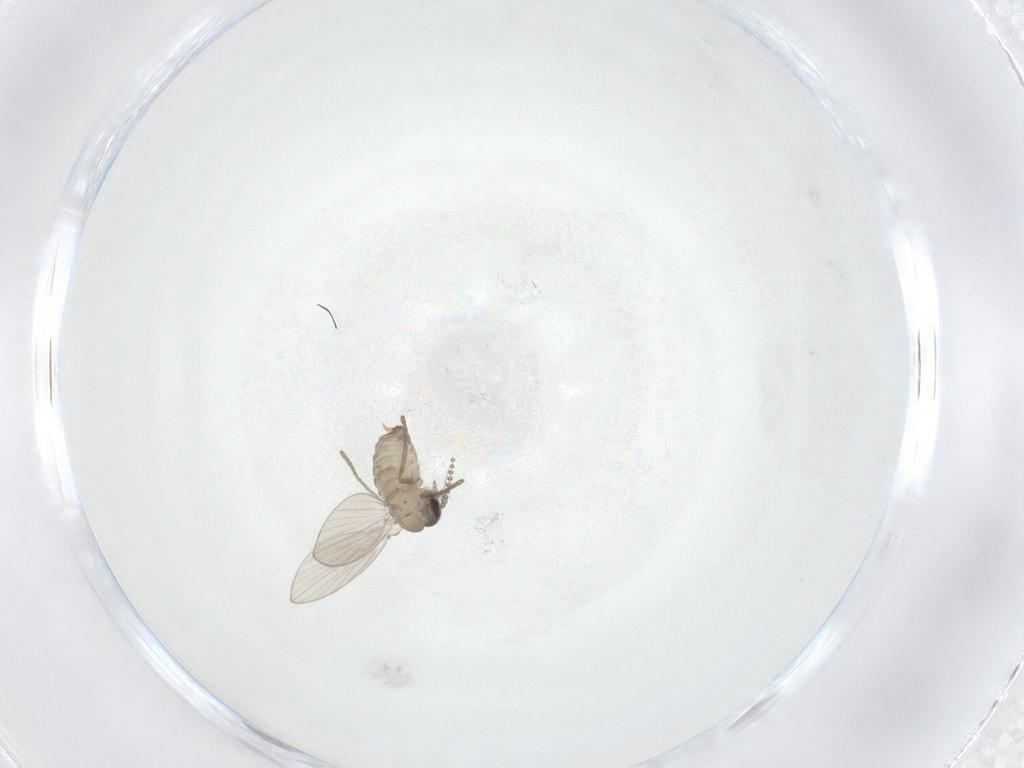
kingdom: Animalia
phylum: Arthropoda
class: Insecta
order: Diptera
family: Psychodidae
